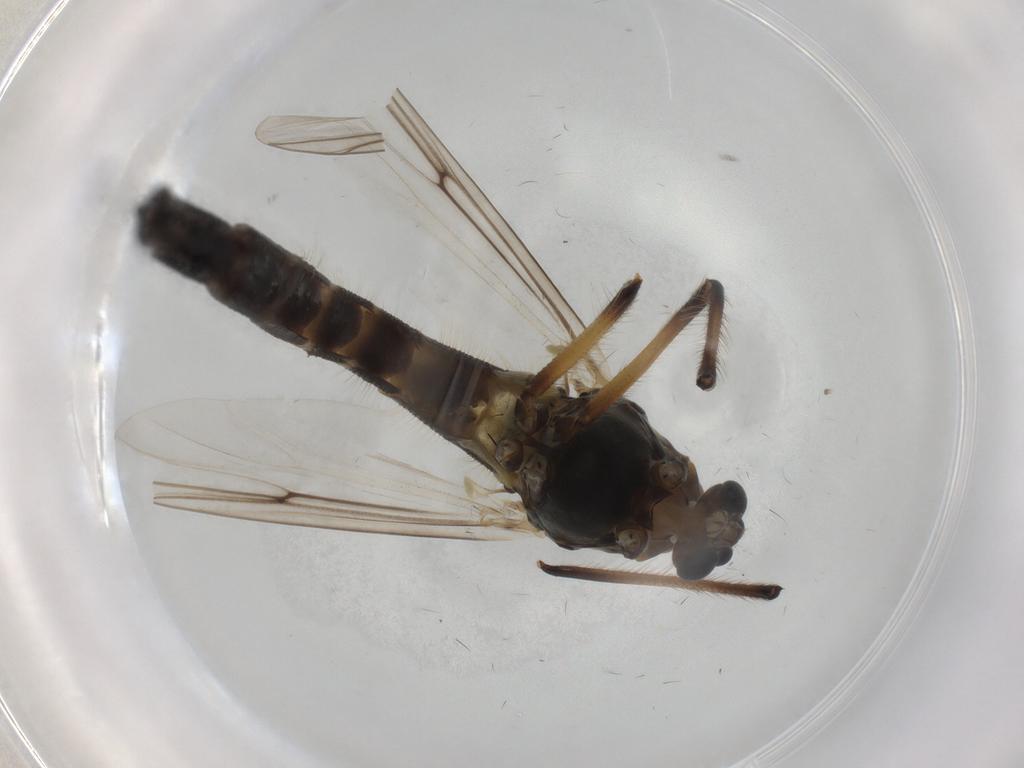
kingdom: Animalia
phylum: Arthropoda
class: Insecta
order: Diptera
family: Cecidomyiidae
